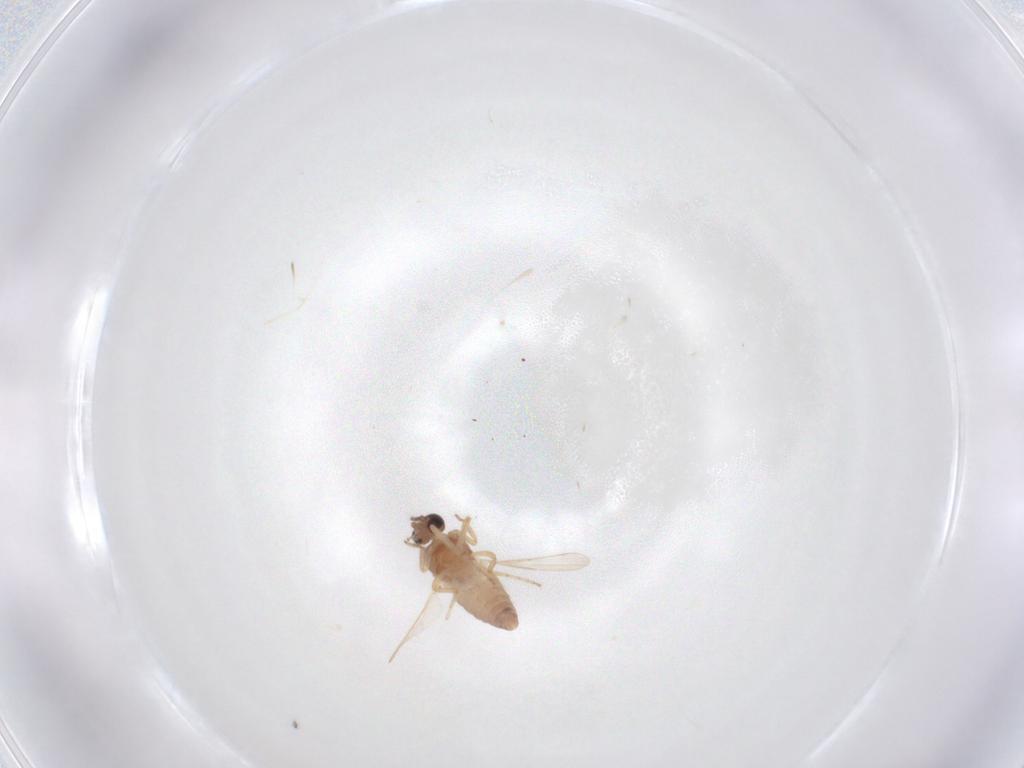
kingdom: Animalia
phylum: Arthropoda
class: Insecta
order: Diptera
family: Ceratopogonidae
